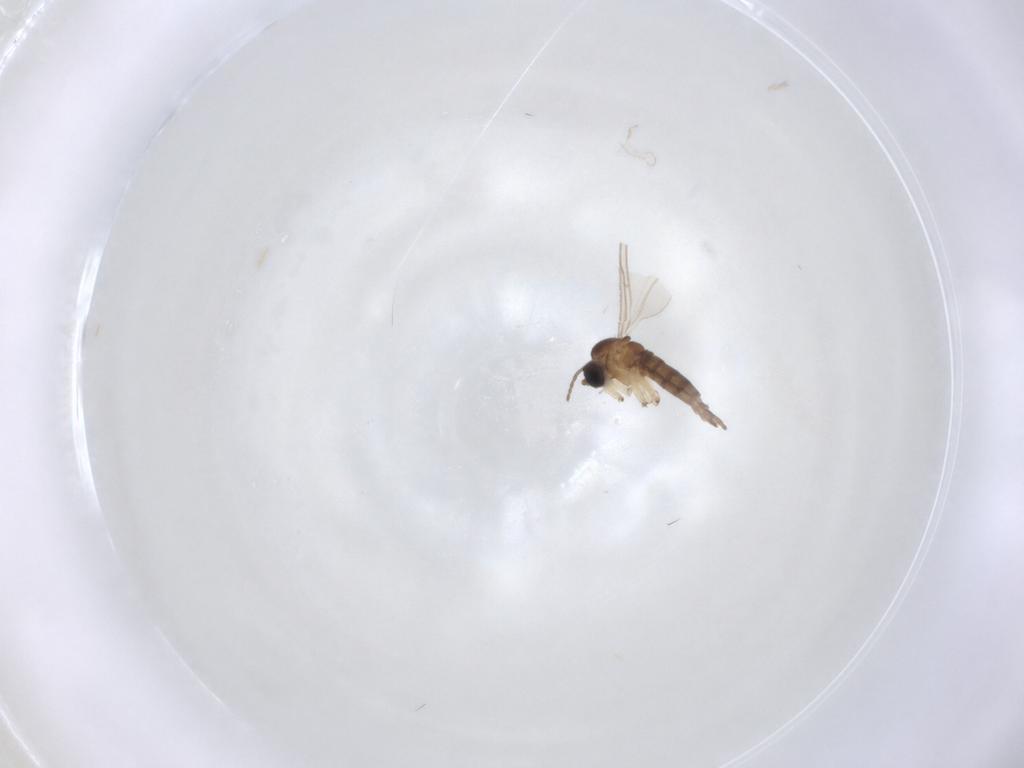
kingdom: Animalia
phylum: Arthropoda
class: Insecta
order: Diptera
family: Sciaridae
